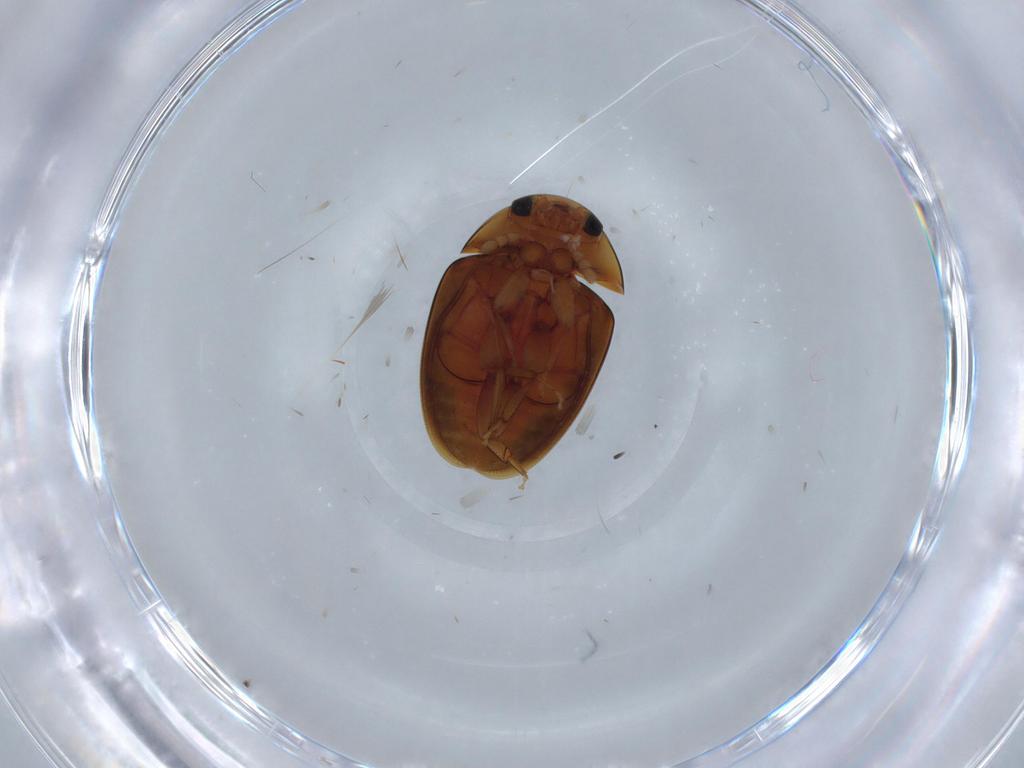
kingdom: Animalia
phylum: Arthropoda
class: Insecta
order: Coleoptera
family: Phalacridae
